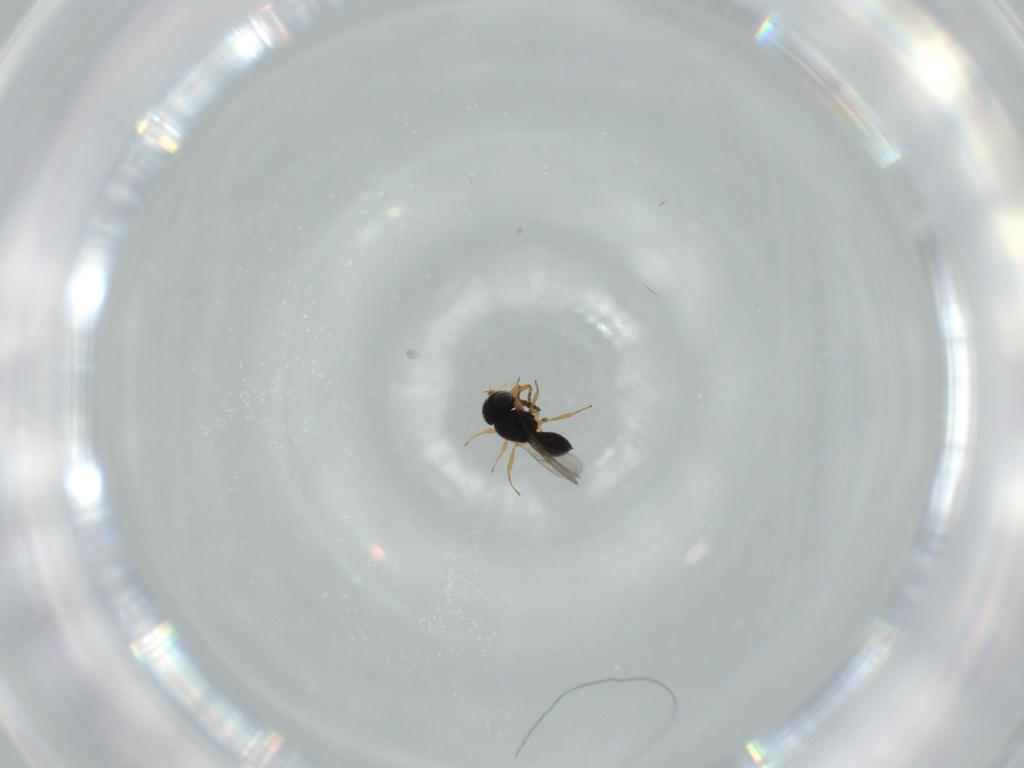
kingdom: Animalia
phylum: Arthropoda
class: Insecta
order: Hymenoptera
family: Scelionidae
